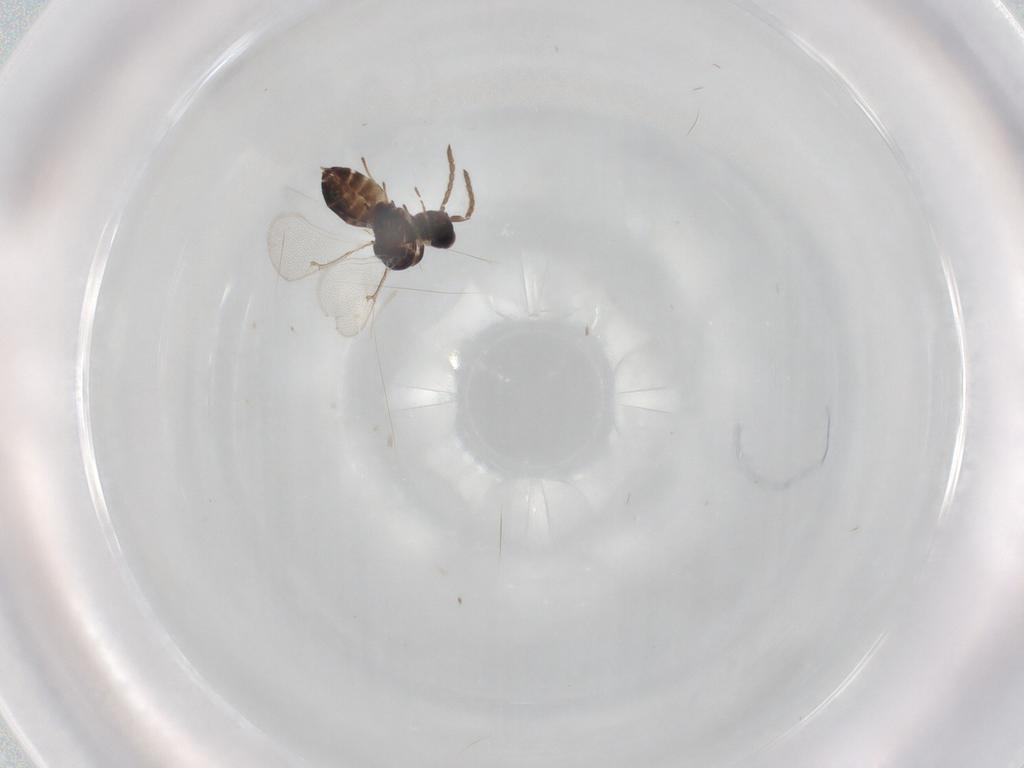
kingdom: Animalia
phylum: Arthropoda
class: Insecta
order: Hymenoptera
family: Eulophidae
